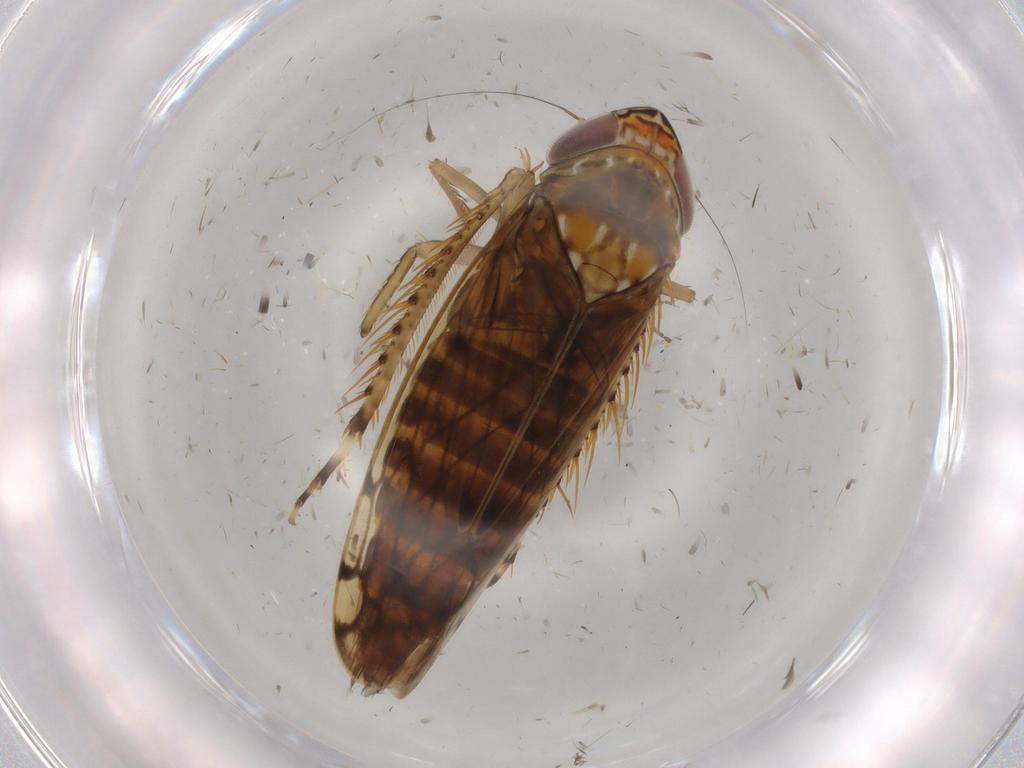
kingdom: Animalia
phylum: Arthropoda
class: Insecta
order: Hemiptera
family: Cicadellidae
